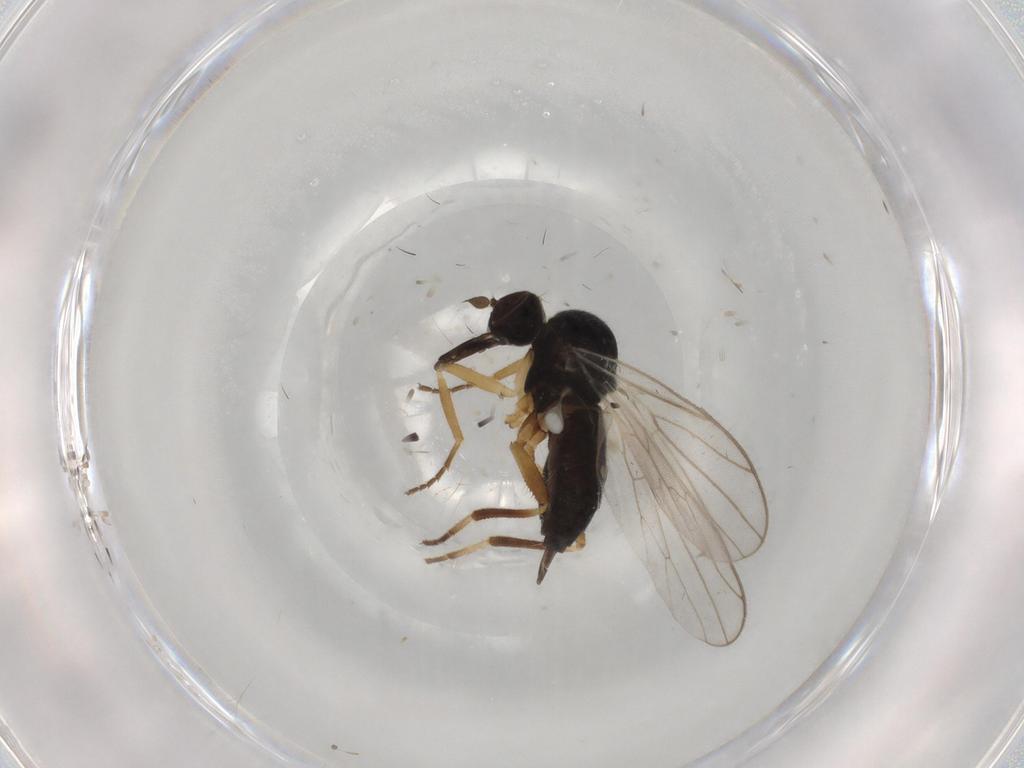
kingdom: Animalia
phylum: Arthropoda
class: Insecta
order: Diptera
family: Hybotidae
